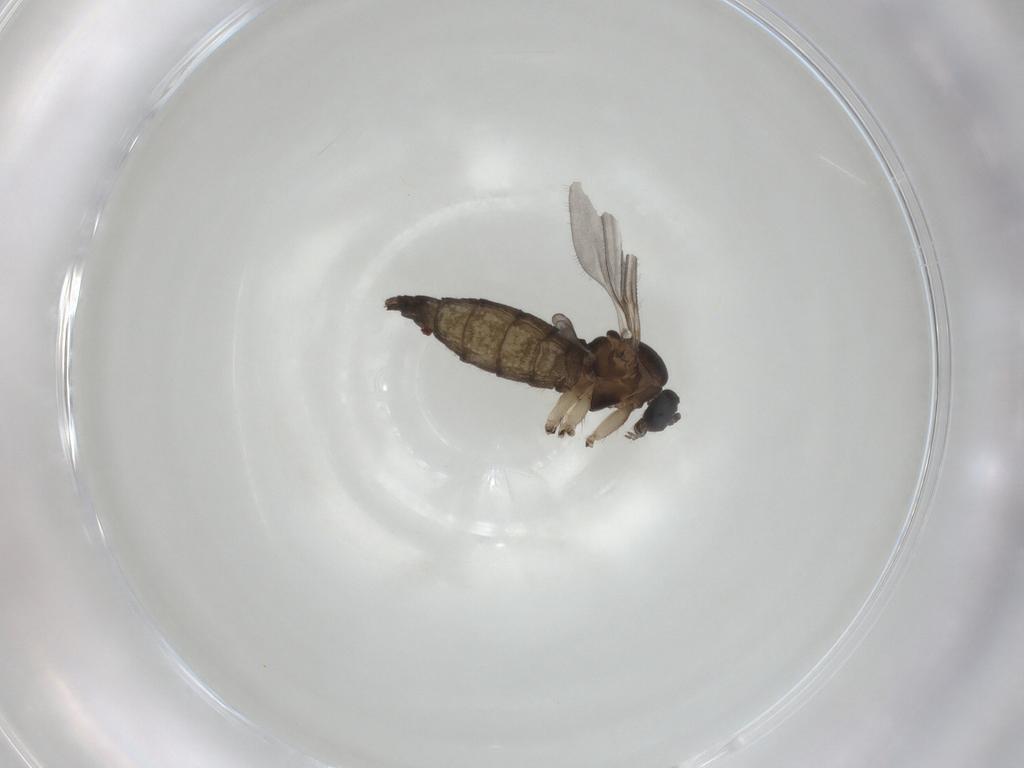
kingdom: Animalia
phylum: Arthropoda
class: Insecta
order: Diptera
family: Sciaridae
